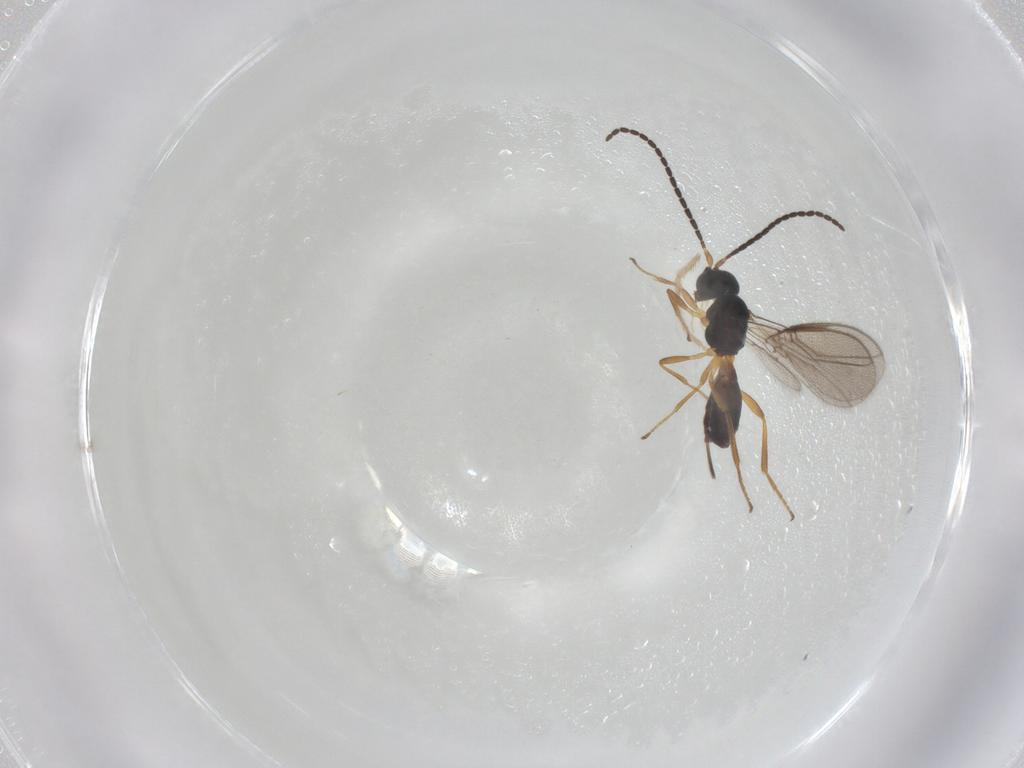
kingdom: Animalia
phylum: Arthropoda
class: Insecta
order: Hymenoptera
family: Braconidae
